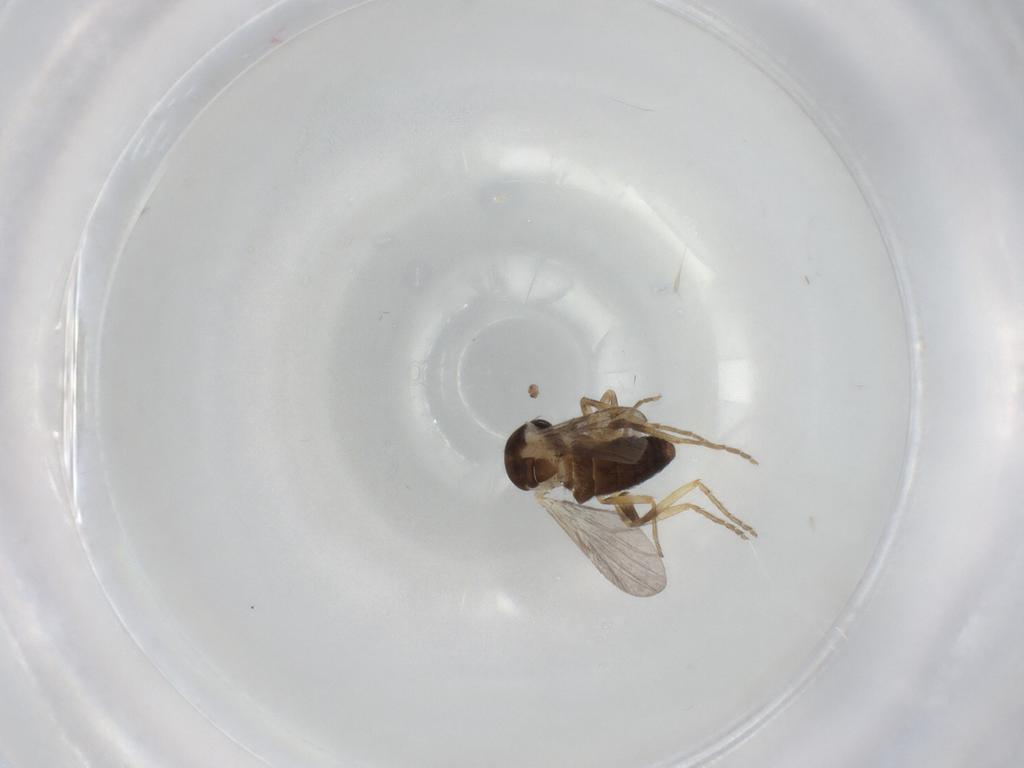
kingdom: Animalia
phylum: Arthropoda
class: Insecta
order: Diptera
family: Ceratopogonidae
